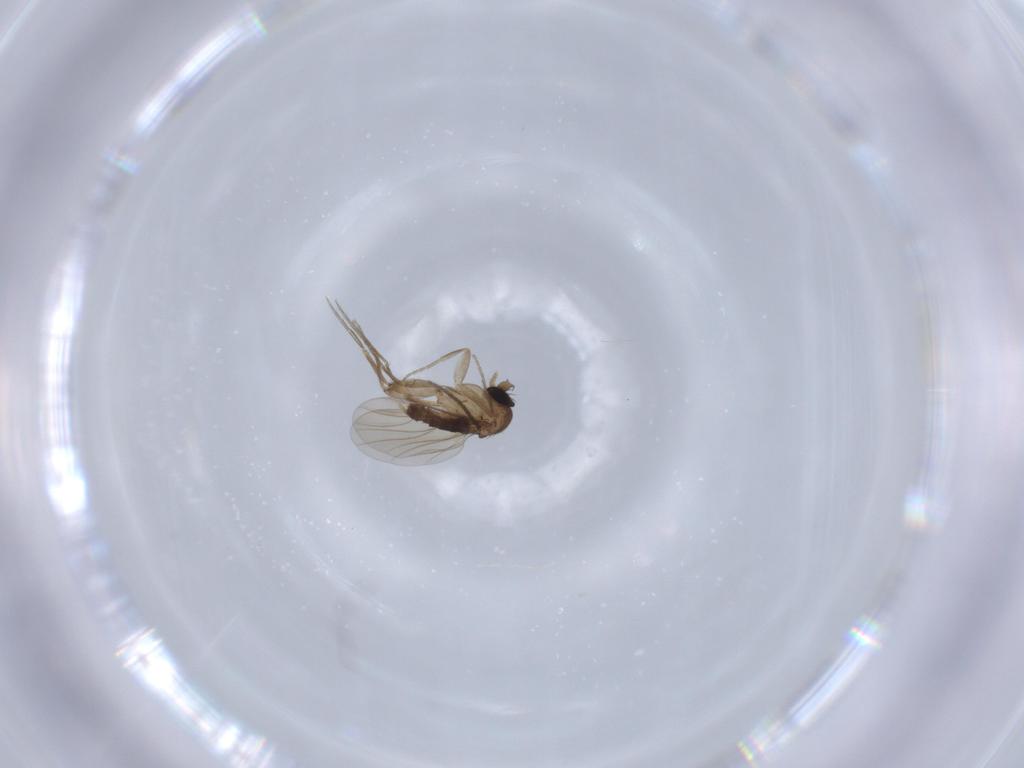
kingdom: Animalia
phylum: Arthropoda
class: Insecta
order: Diptera
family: Sciaridae
